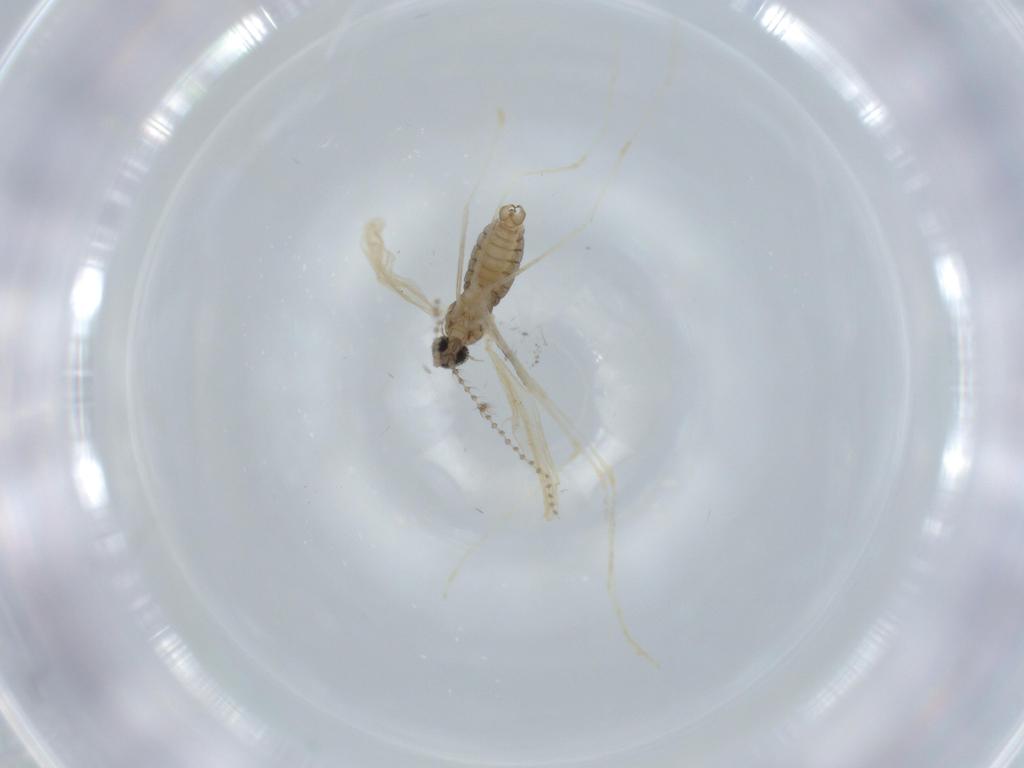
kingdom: Animalia
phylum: Arthropoda
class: Insecta
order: Diptera
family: Cecidomyiidae
